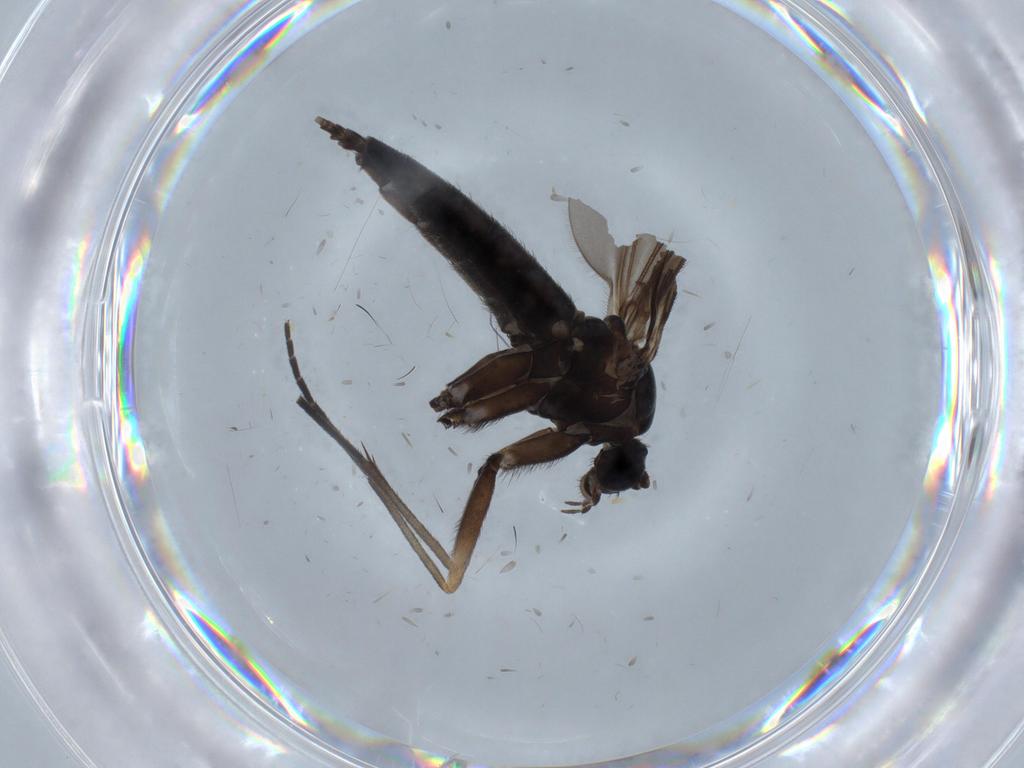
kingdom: Animalia
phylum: Arthropoda
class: Insecta
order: Diptera
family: Sciaridae
